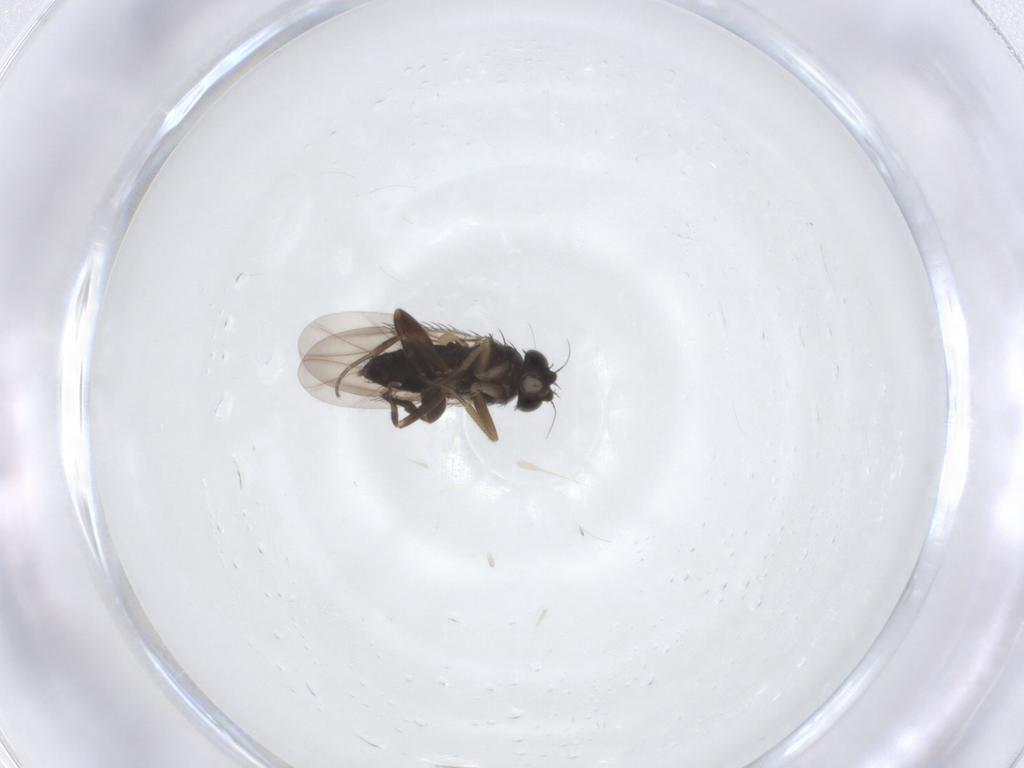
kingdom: Animalia
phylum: Arthropoda
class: Insecta
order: Diptera
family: Phoridae
